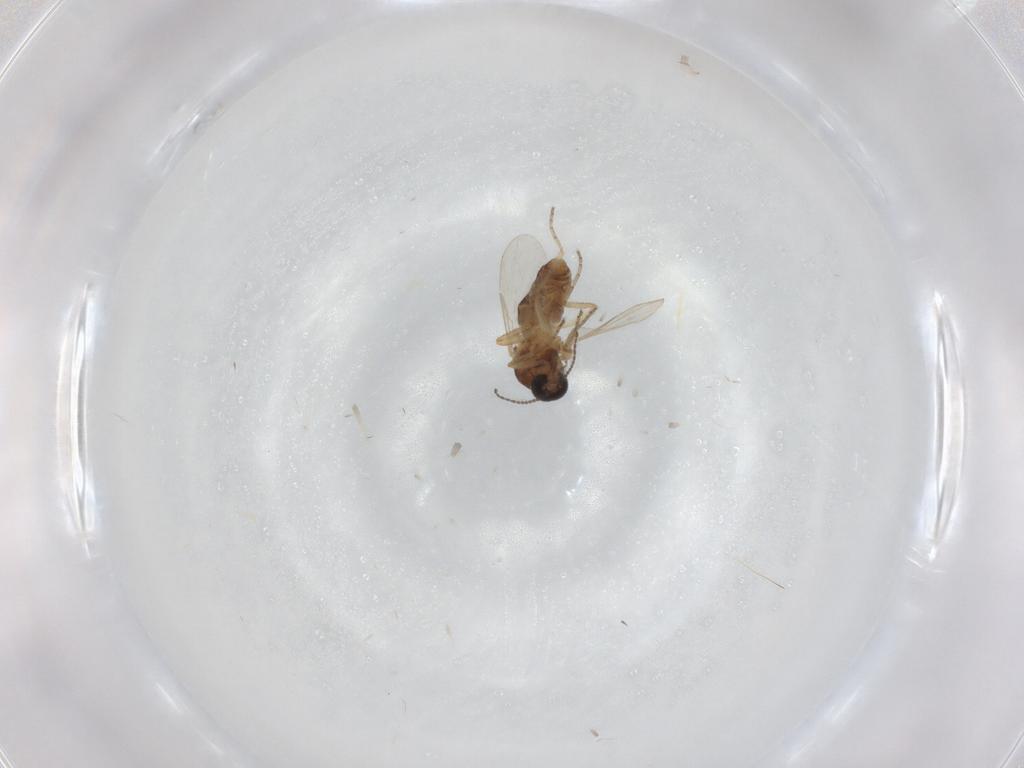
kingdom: Animalia
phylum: Arthropoda
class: Insecta
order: Diptera
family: Ceratopogonidae
